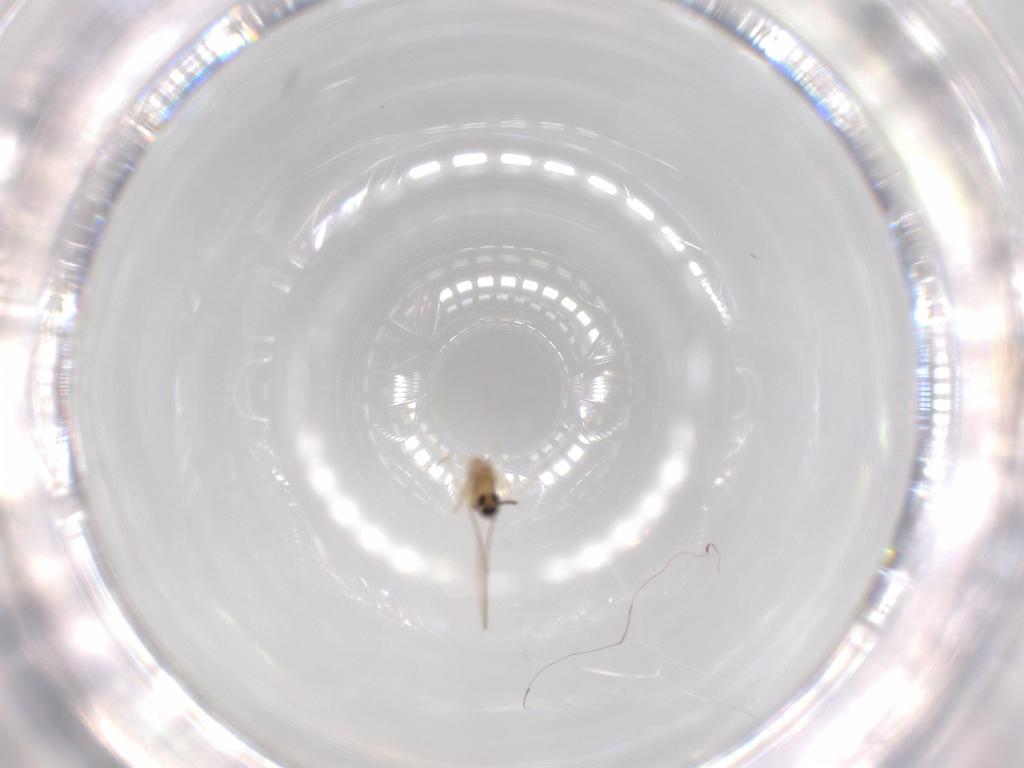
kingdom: Animalia
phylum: Arthropoda
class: Insecta
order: Diptera
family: Cecidomyiidae
